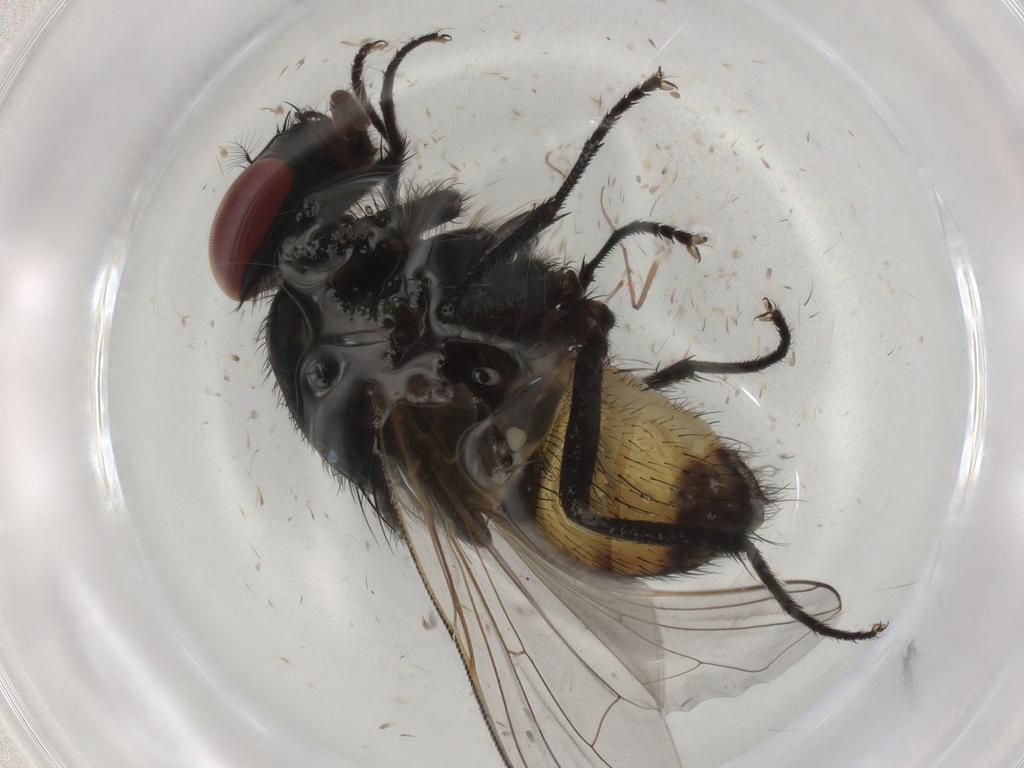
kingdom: Animalia
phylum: Arthropoda
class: Insecta
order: Diptera
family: Muscidae
